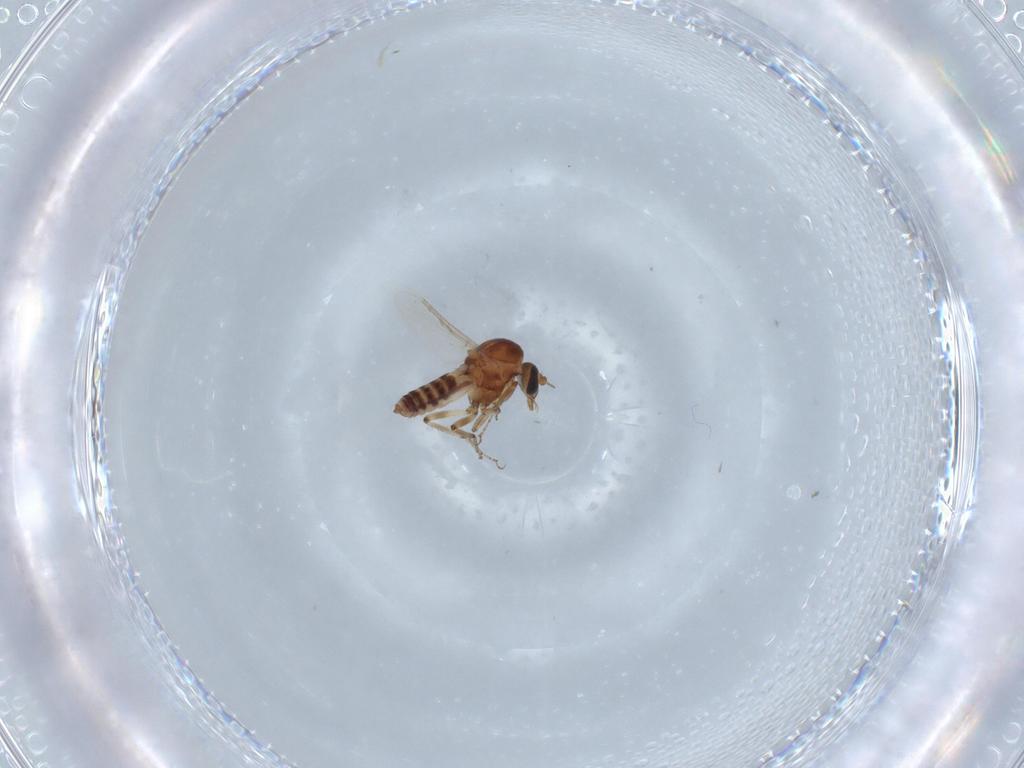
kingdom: Animalia
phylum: Arthropoda
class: Insecta
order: Diptera
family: Ceratopogonidae
